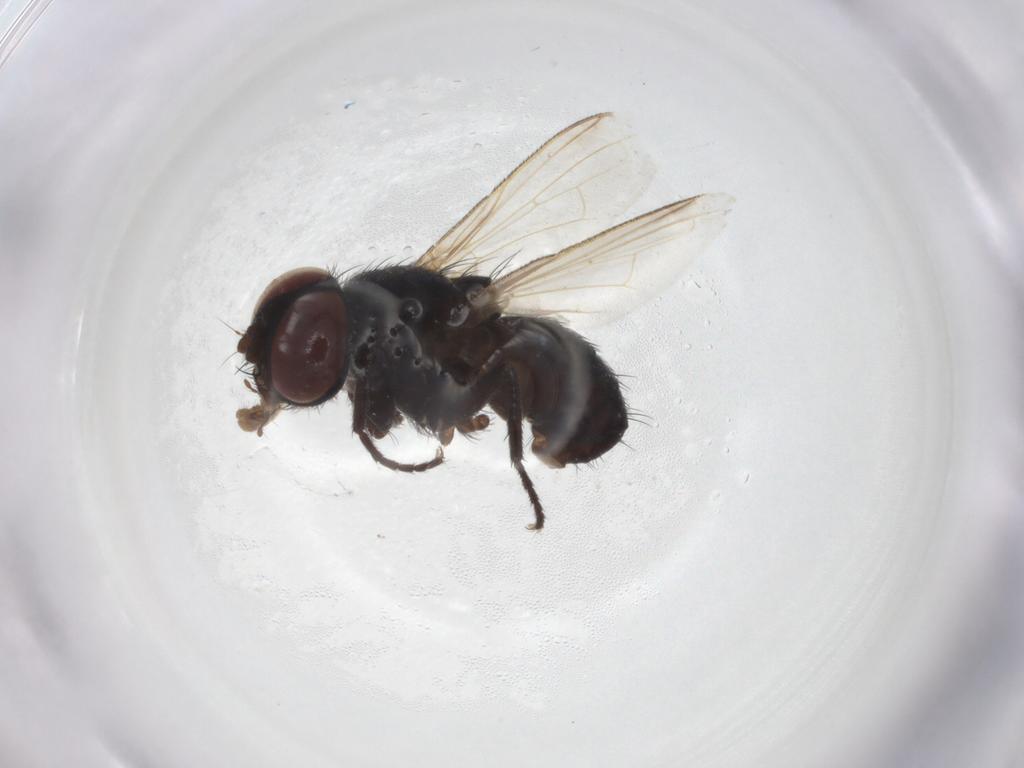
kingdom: Animalia
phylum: Arthropoda
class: Insecta
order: Diptera
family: Tachinidae
